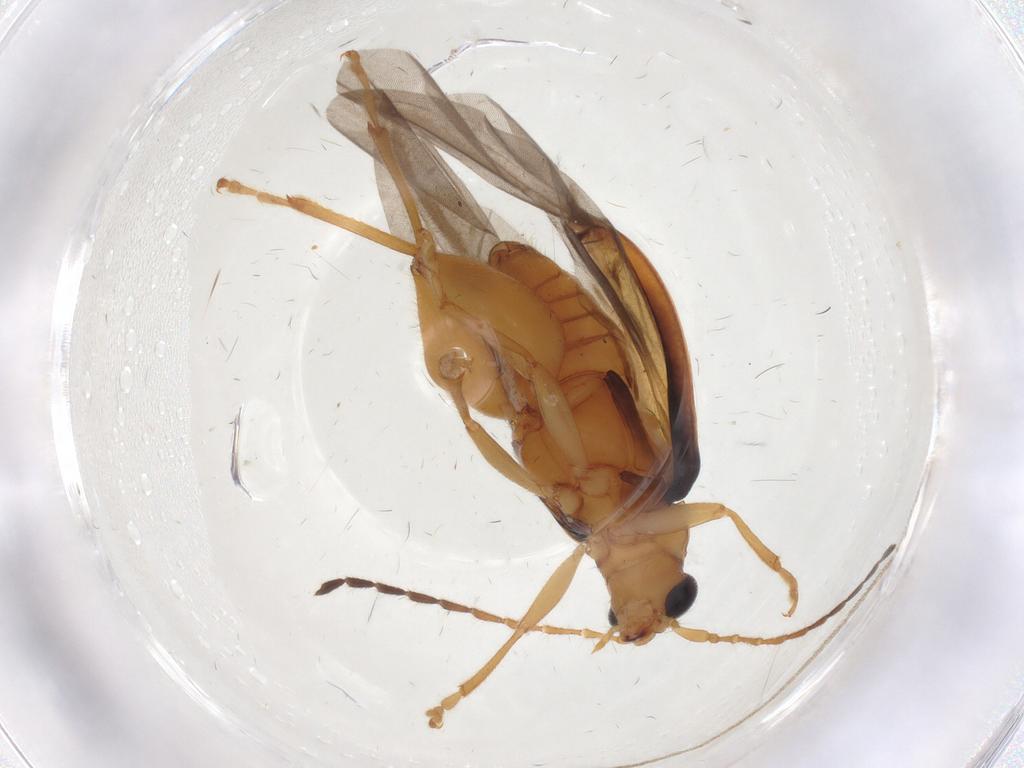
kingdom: Animalia
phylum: Arthropoda
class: Insecta
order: Coleoptera
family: Chrysomelidae
